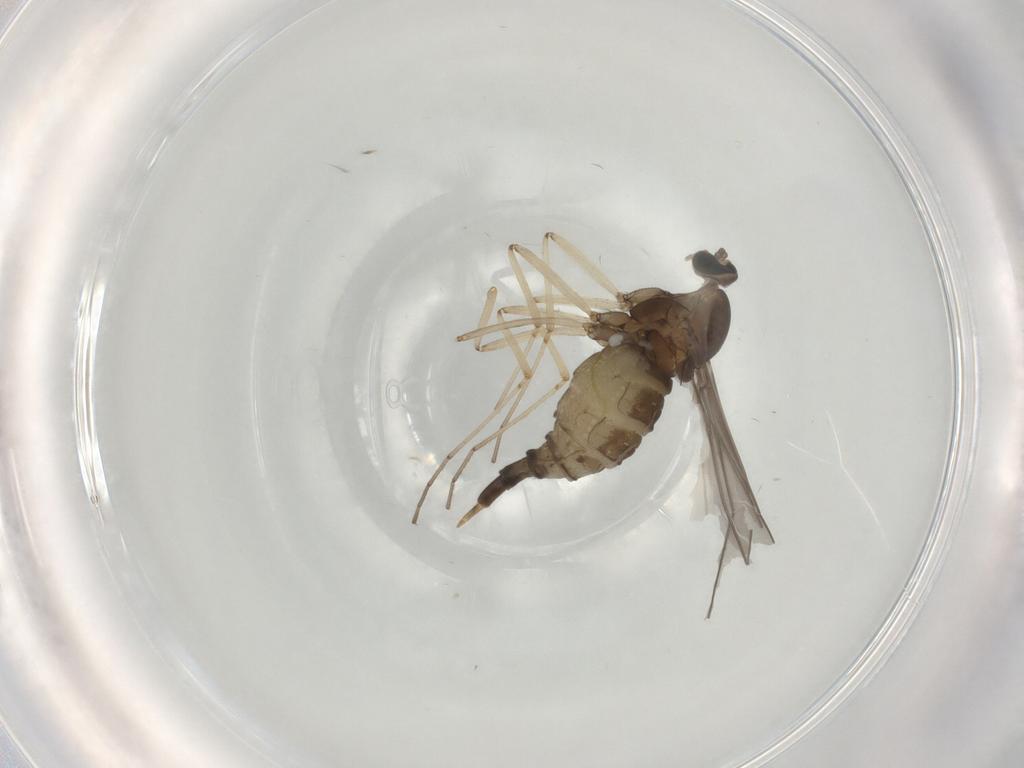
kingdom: Animalia
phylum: Arthropoda
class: Insecta
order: Diptera
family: Cecidomyiidae
